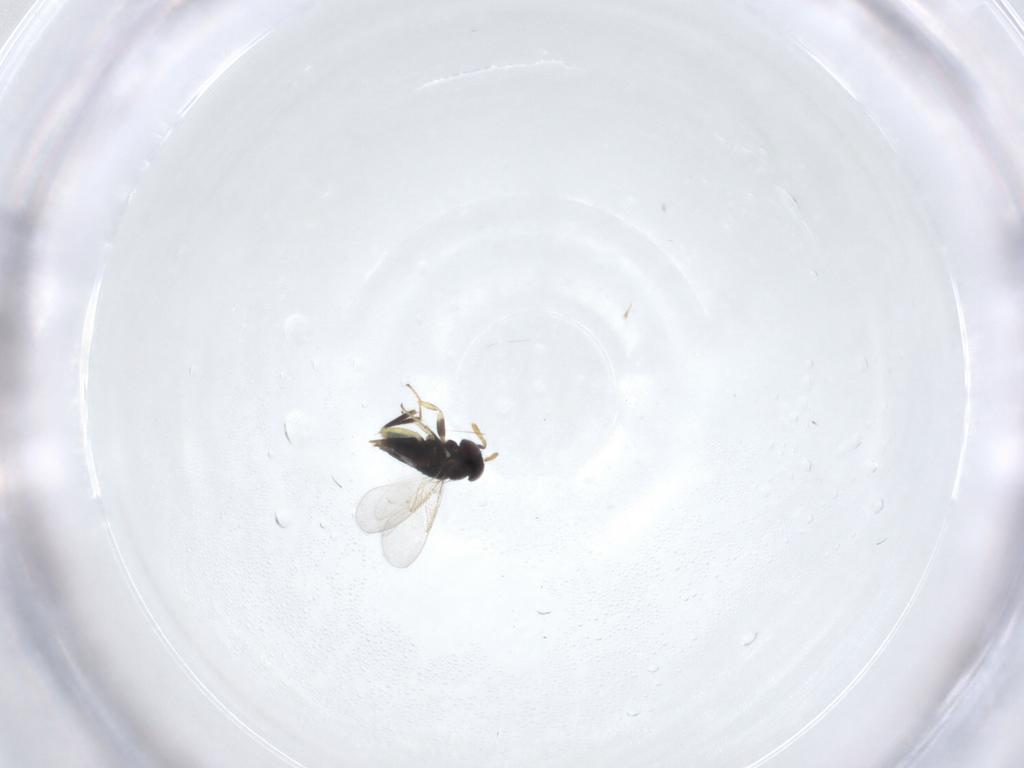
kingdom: Animalia
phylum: Arthropoda
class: Insecta
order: Hymenoptera
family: Aphelinidae
